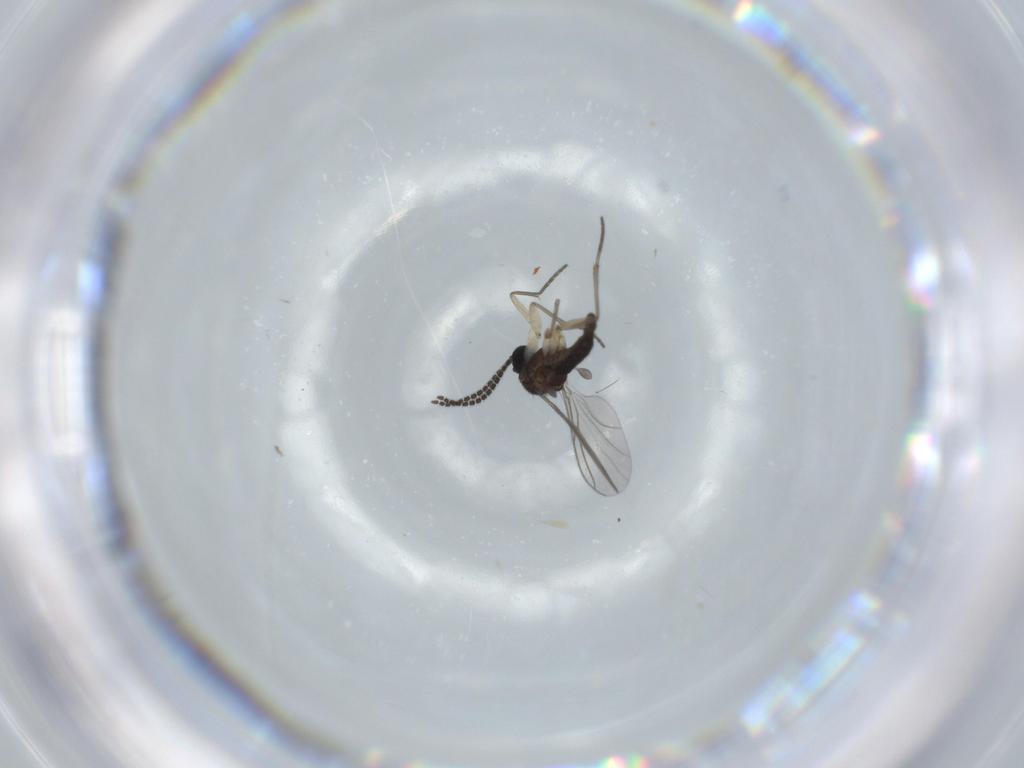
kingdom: Animalia
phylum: Arthropoda
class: Insecta
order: Diptera
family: Sciaridae
